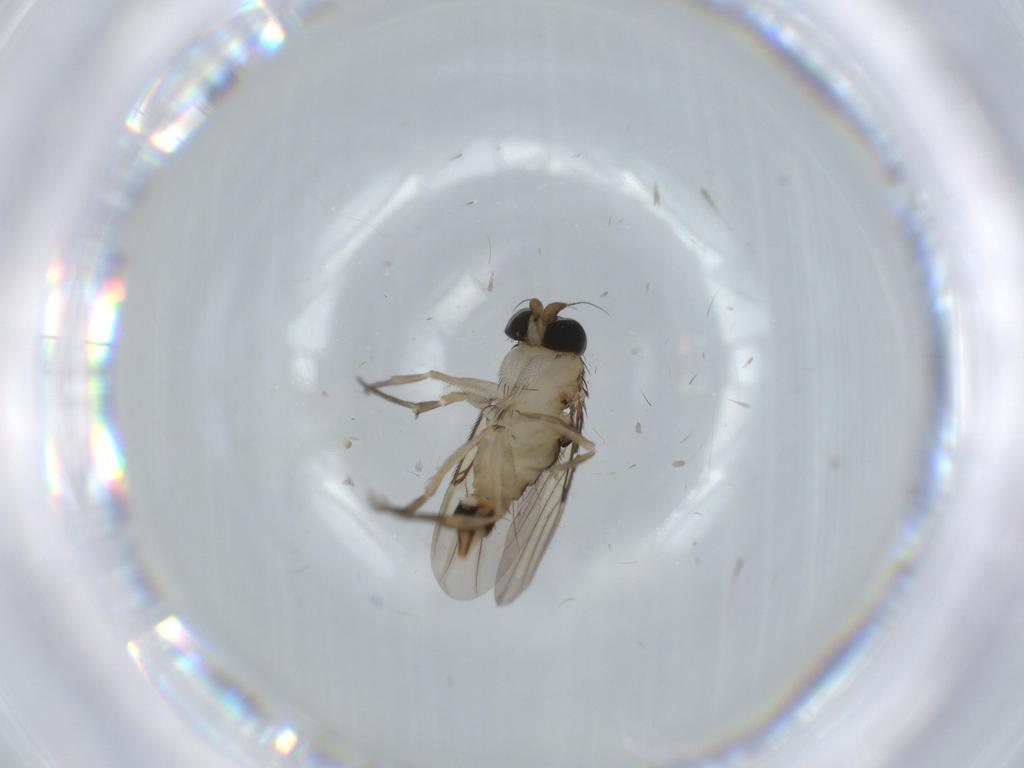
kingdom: Animalia
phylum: Arthropoda
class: Insecta
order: Diptera
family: Phoridae
